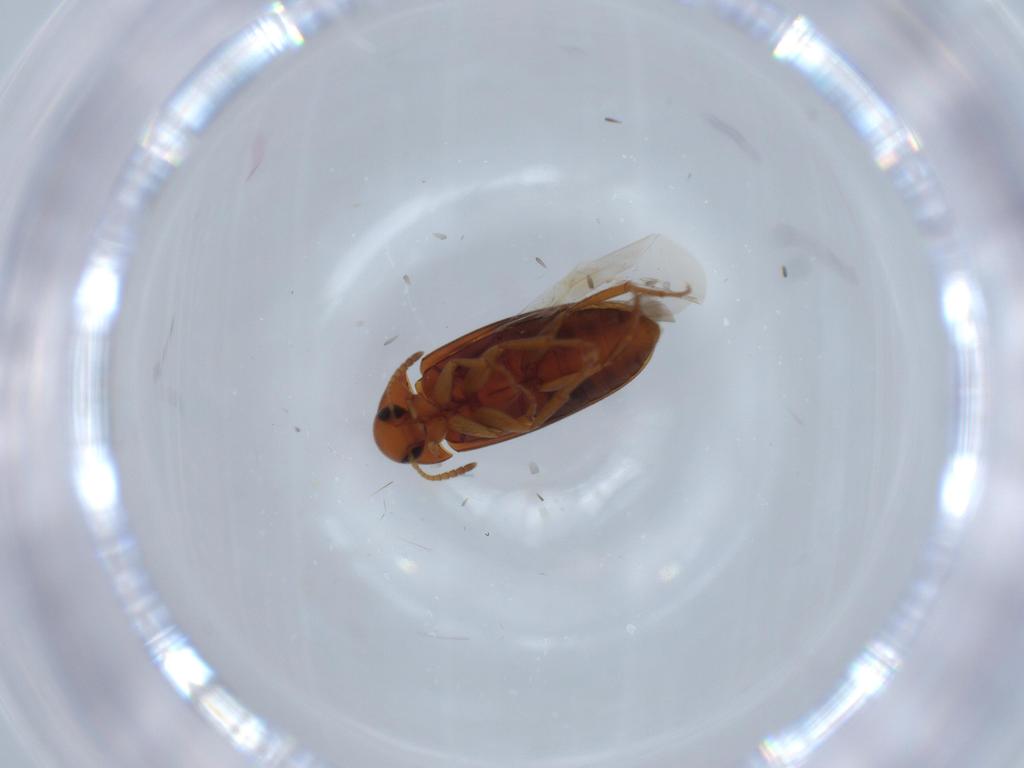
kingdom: Animalia
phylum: Arthropoda
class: Insecta
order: Coleoptera
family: Scraptiidae
